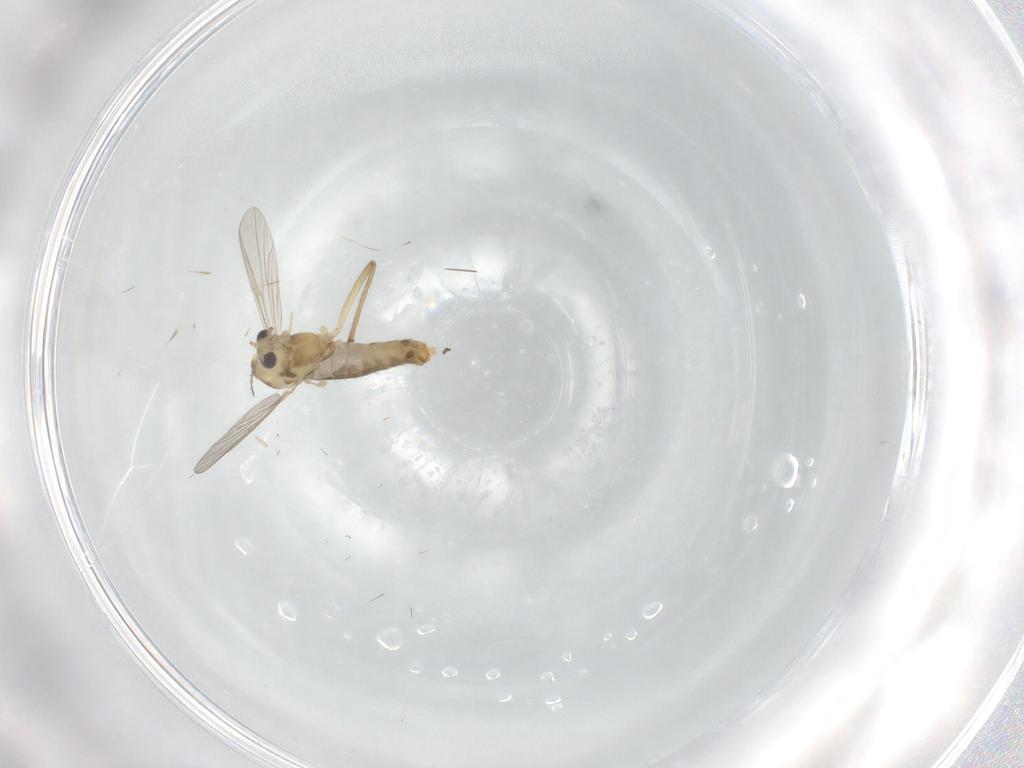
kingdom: Animalia
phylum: Arthropoda
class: Insecta
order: Diptera
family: Chironomidae
